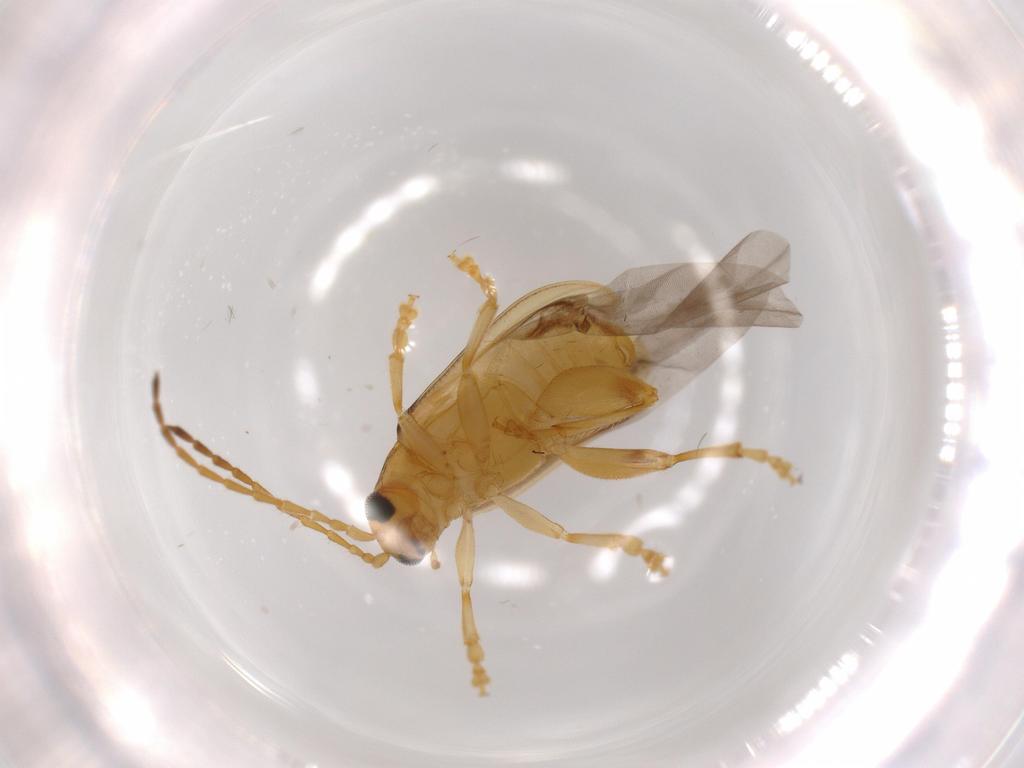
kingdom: Animalia
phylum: Arthropoda
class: Insecta
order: Coleoptera
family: Chrysomelidae
